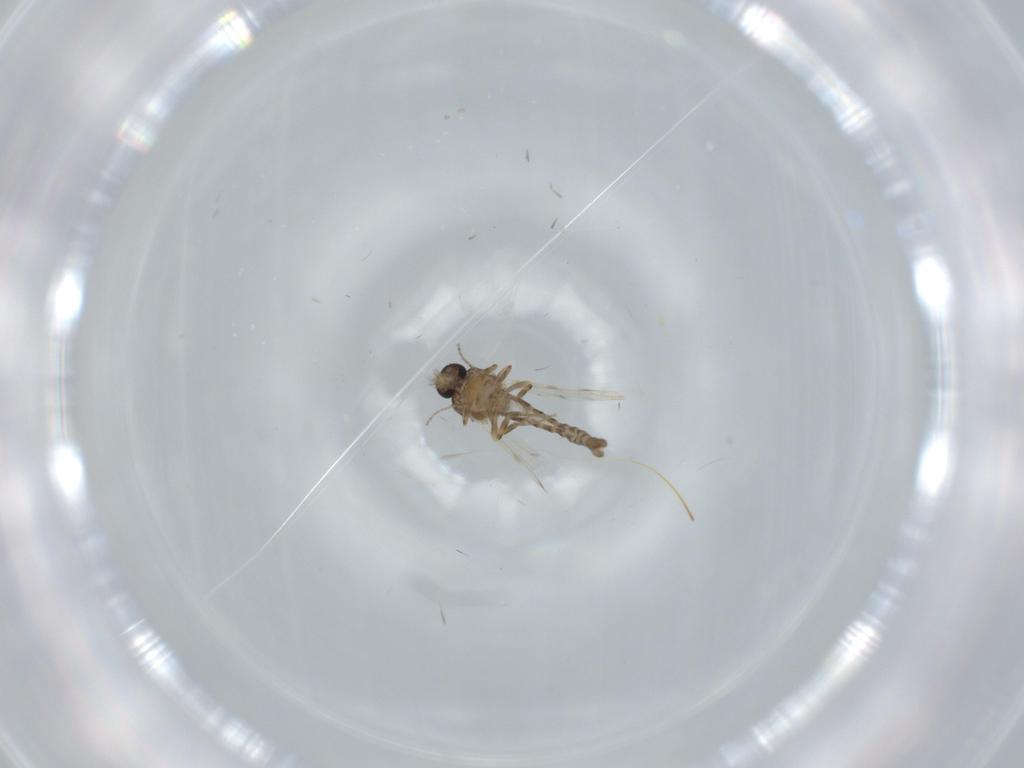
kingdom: Animalia
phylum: Arthropoda
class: Insecta
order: Diptera
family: Ceratopogonidae
